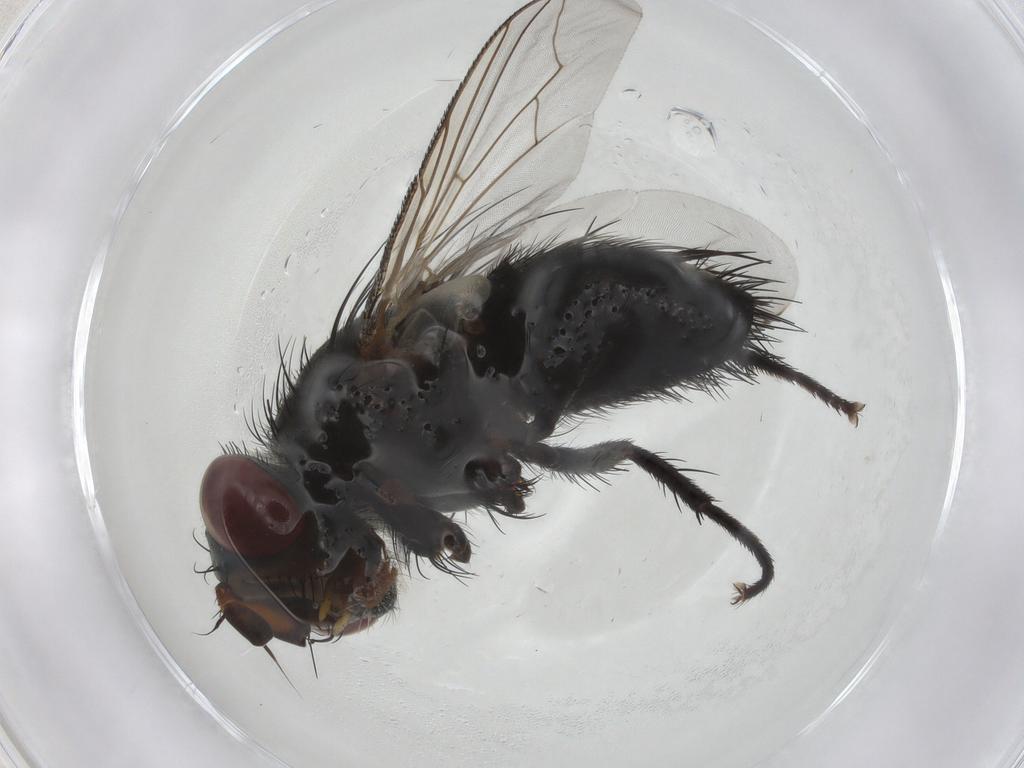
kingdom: Animalia
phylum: Arthropoda
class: Insecta
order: Diptera
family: Tachinidae
